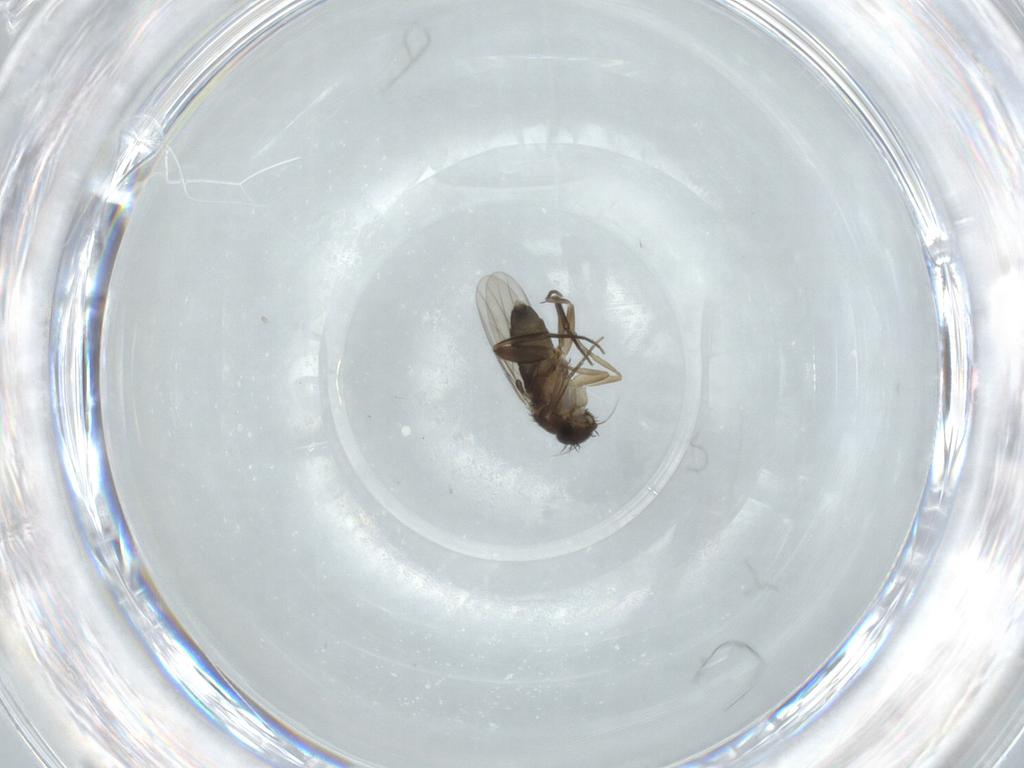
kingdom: Animalia
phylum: Arthropoda
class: Insecta
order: Diptera
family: Phoridae
